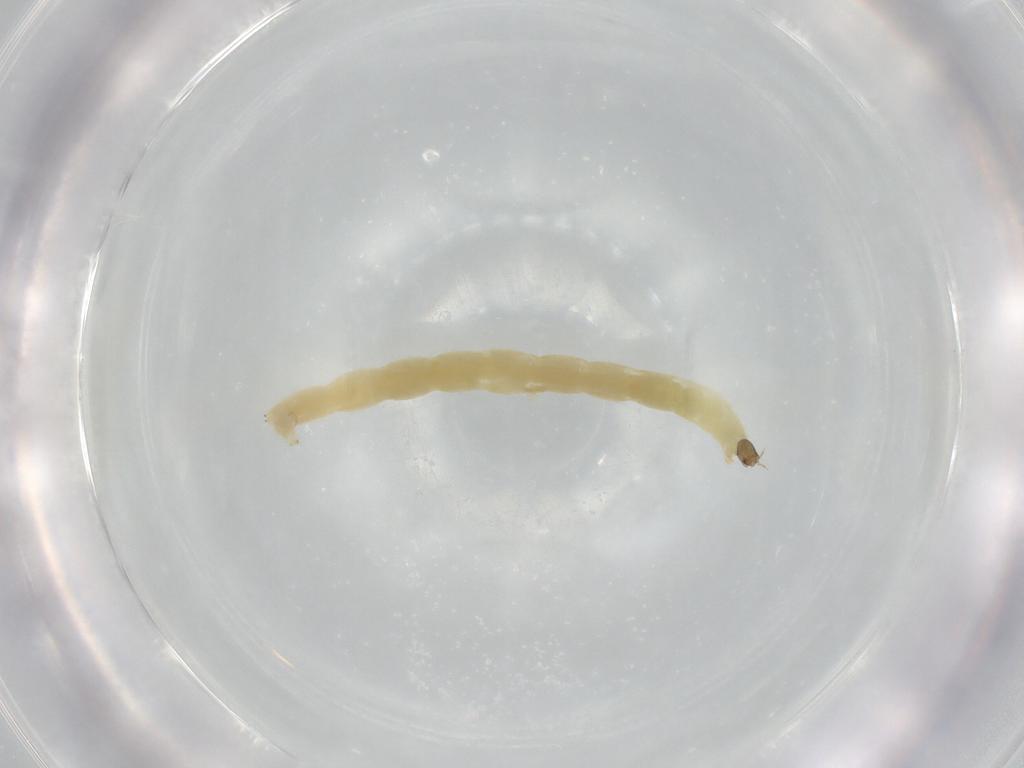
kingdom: Animalia
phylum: Arthropoda
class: Insecta
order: Diptera
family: Chironomidae
